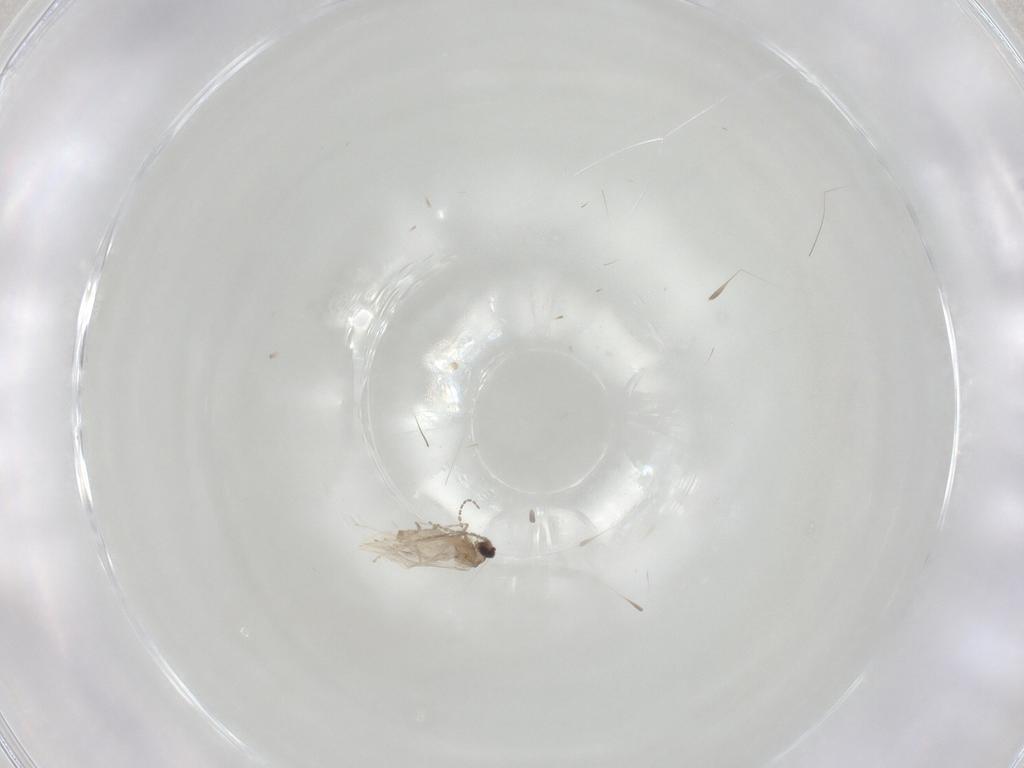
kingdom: Animalia
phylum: Arthropoda
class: Insecta
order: Diptera
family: Cecidomyiidae
